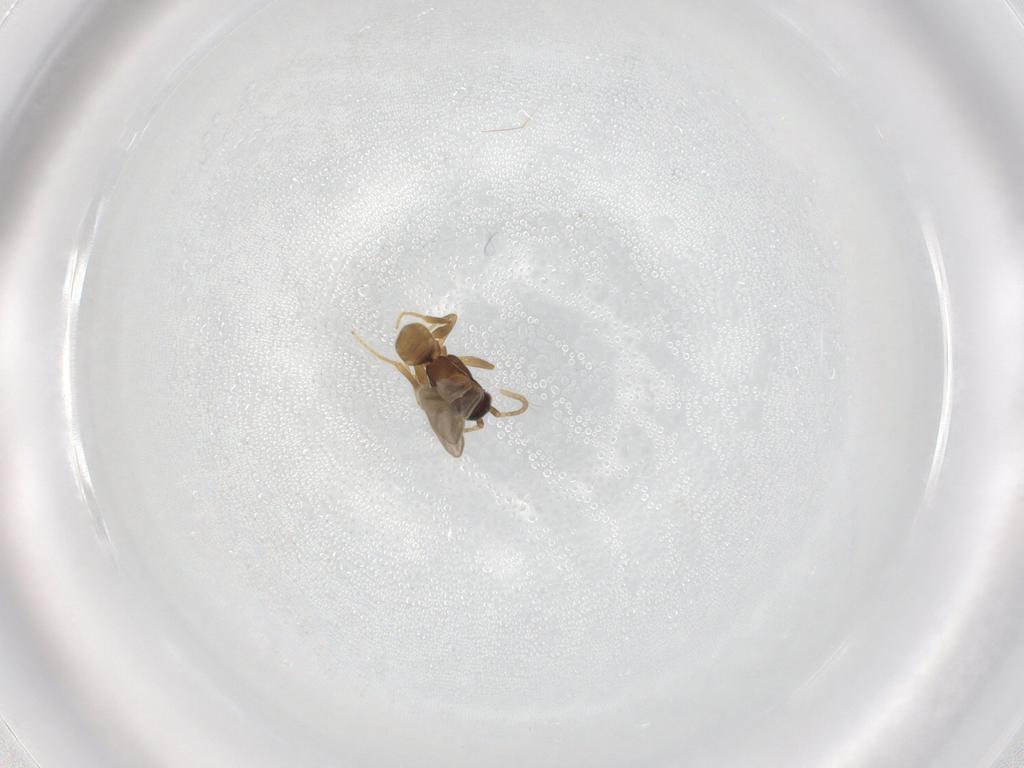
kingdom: Animalia
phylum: Arthropoda
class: Insecta
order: Hymenoptera
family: Dryinidae
